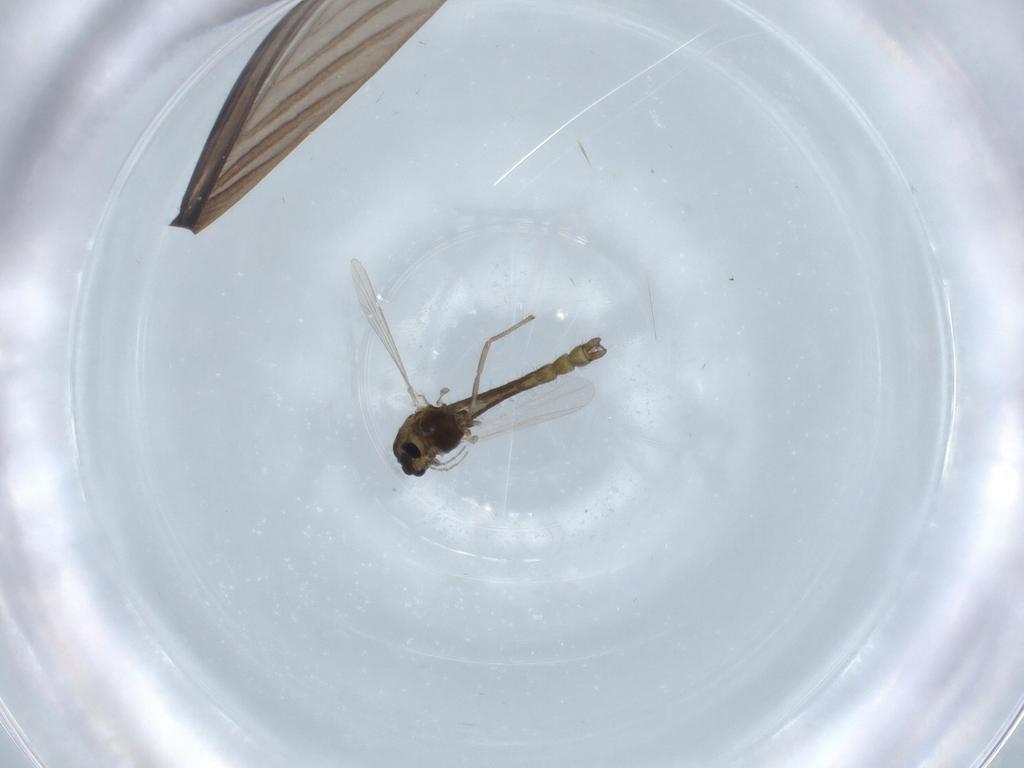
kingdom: Animalia
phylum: Arthropoda
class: Insecta
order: Diptera
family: Chironomidae
